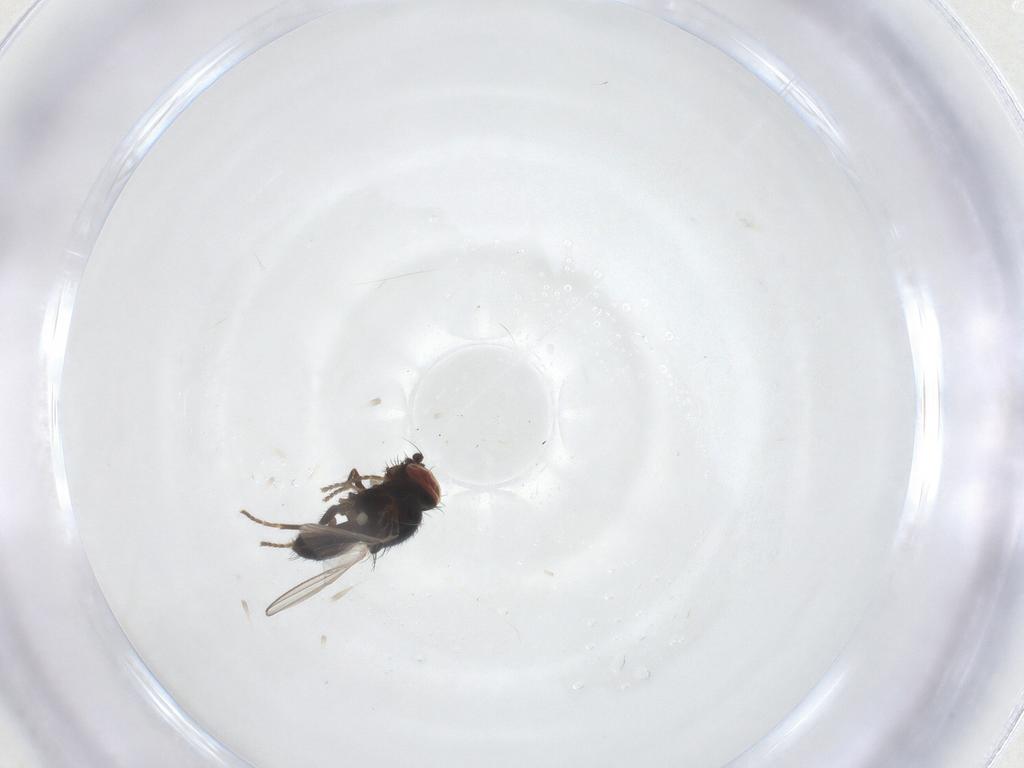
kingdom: Animalia
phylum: Arthropoda
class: Insecta
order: Diptera
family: Milichiidae
